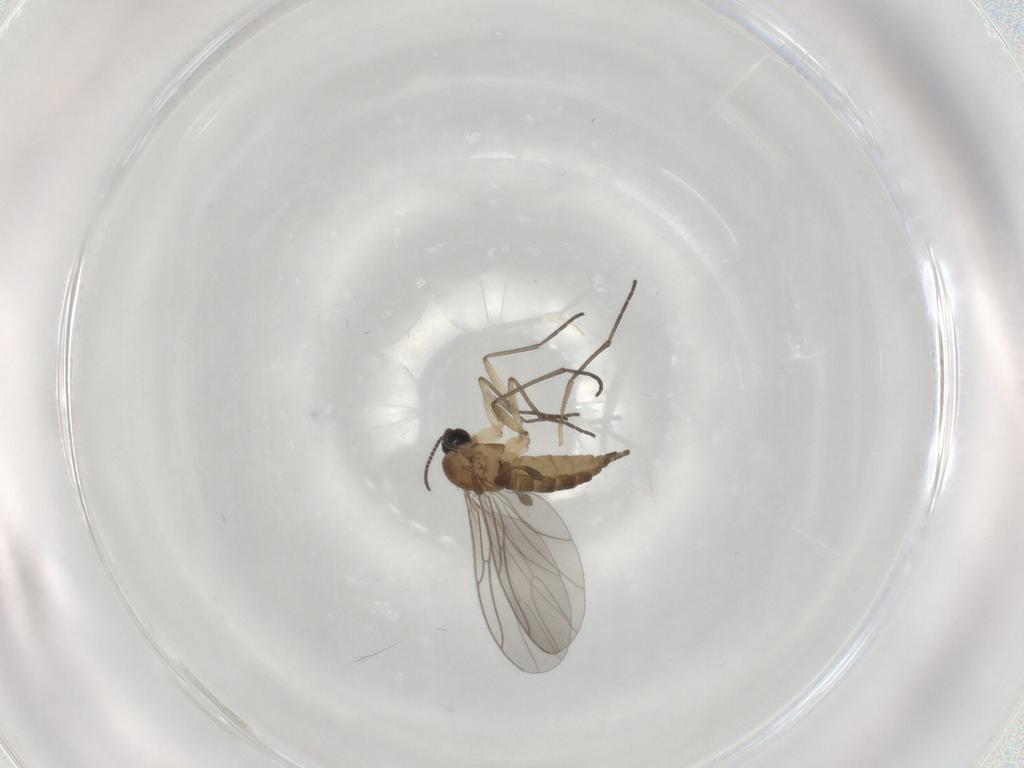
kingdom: Animalia
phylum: Arthropoda
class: Insecta
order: Diptera
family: Sciaridae
